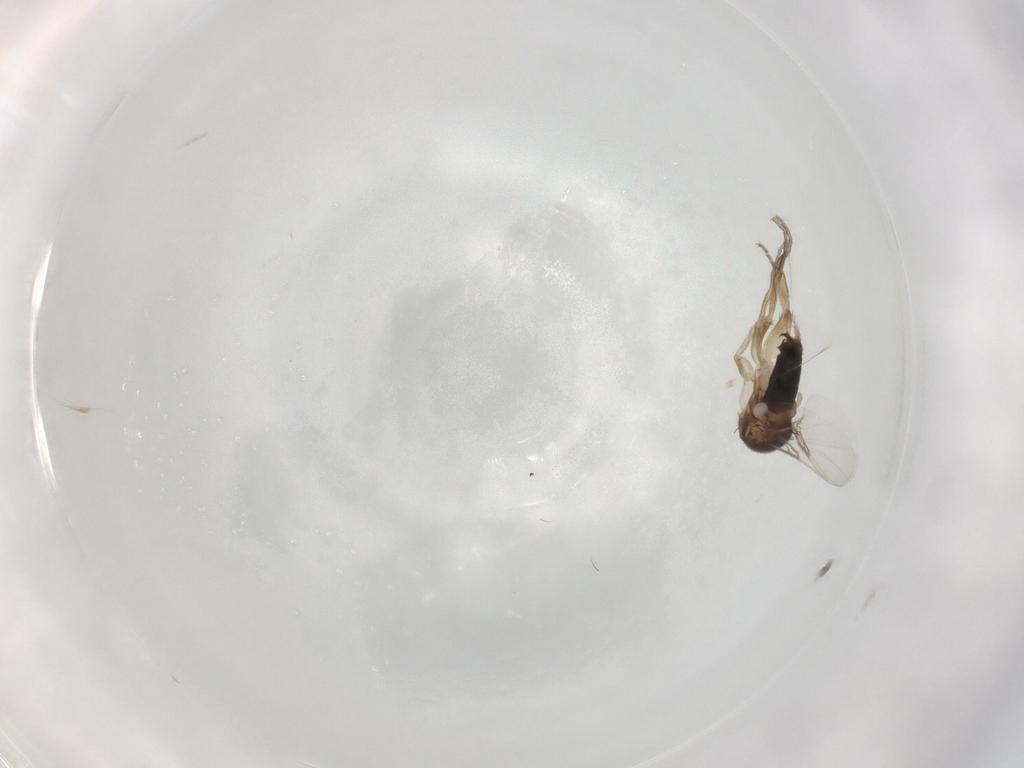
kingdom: Animalia
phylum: Arthropoda
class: Insecta
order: Diptera
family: Phoridae
